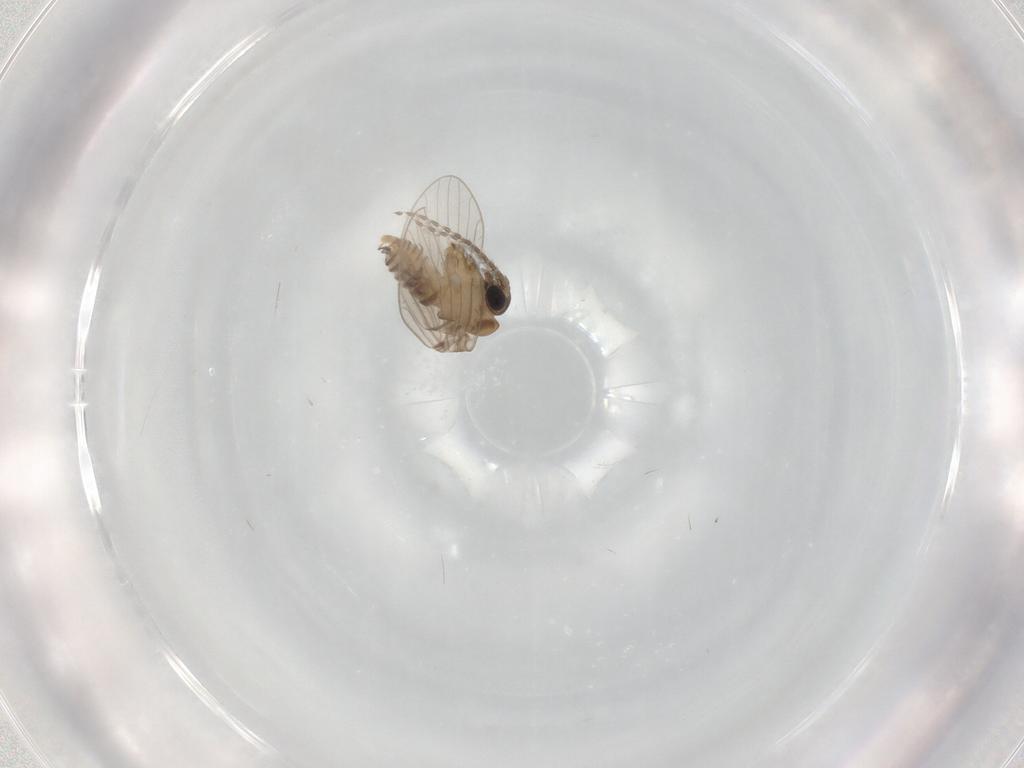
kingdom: Animalia
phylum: Arthropoda
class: Insecta
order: Diptera
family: Cecidomyiidae
